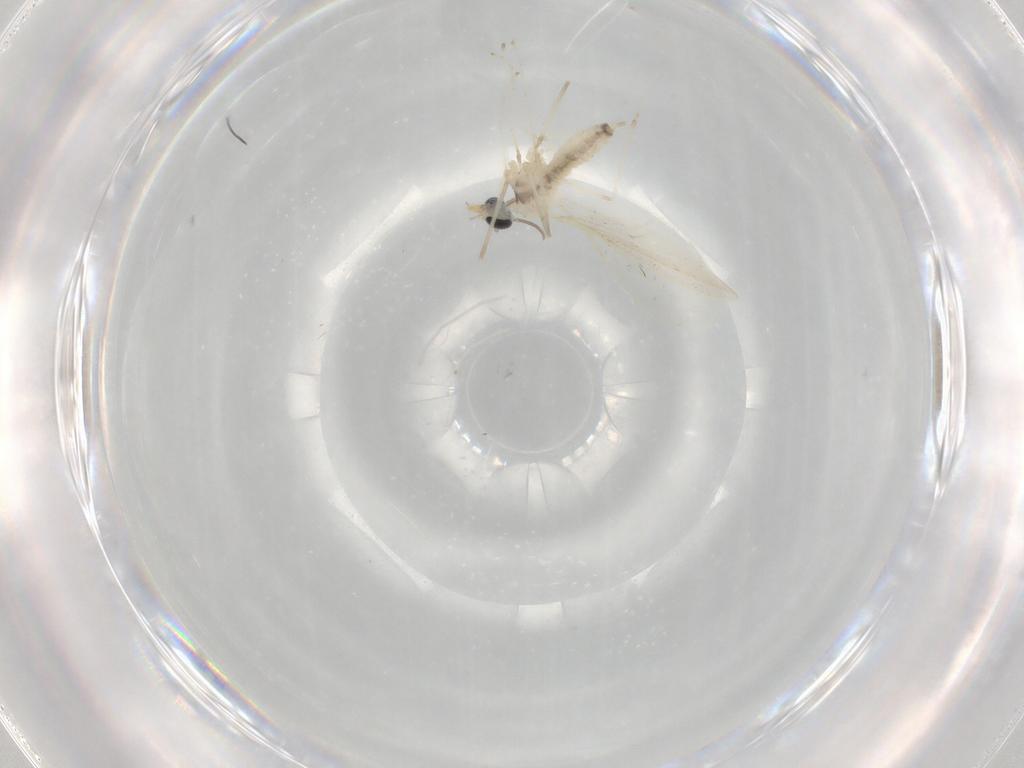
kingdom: Animalia
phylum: Arthropoda
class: Insecta
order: Diptera
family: Cecidomyiidae
